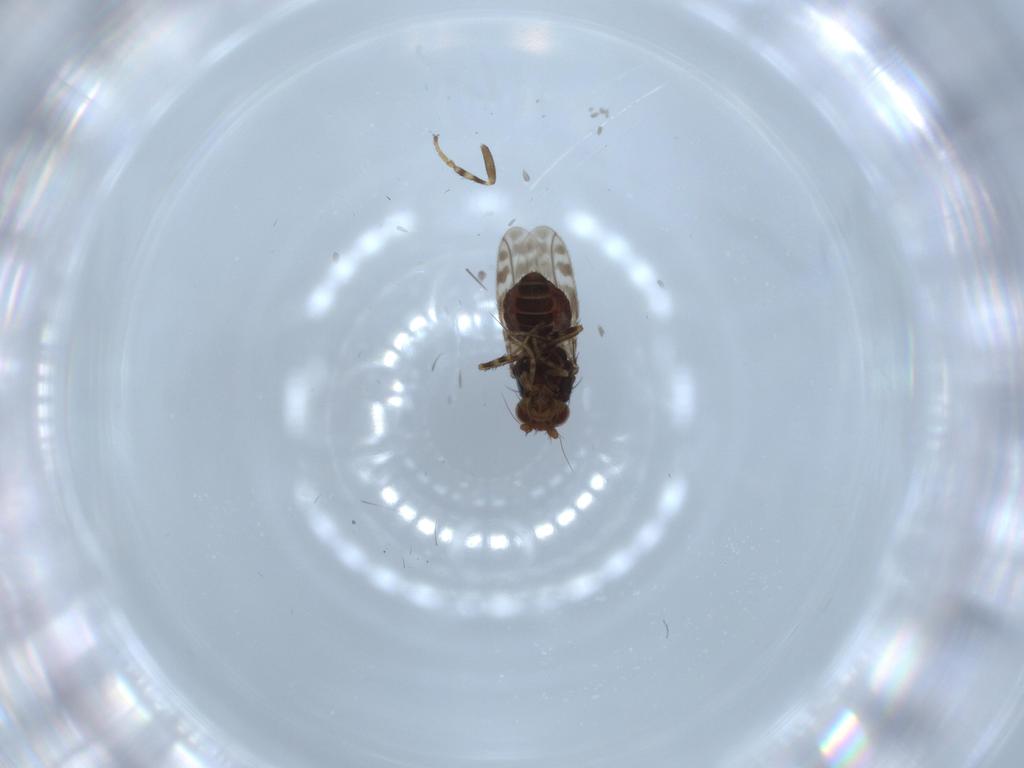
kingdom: Animalia
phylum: Arthropoda
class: Insecta
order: Diptera
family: Sphaeroceridae
